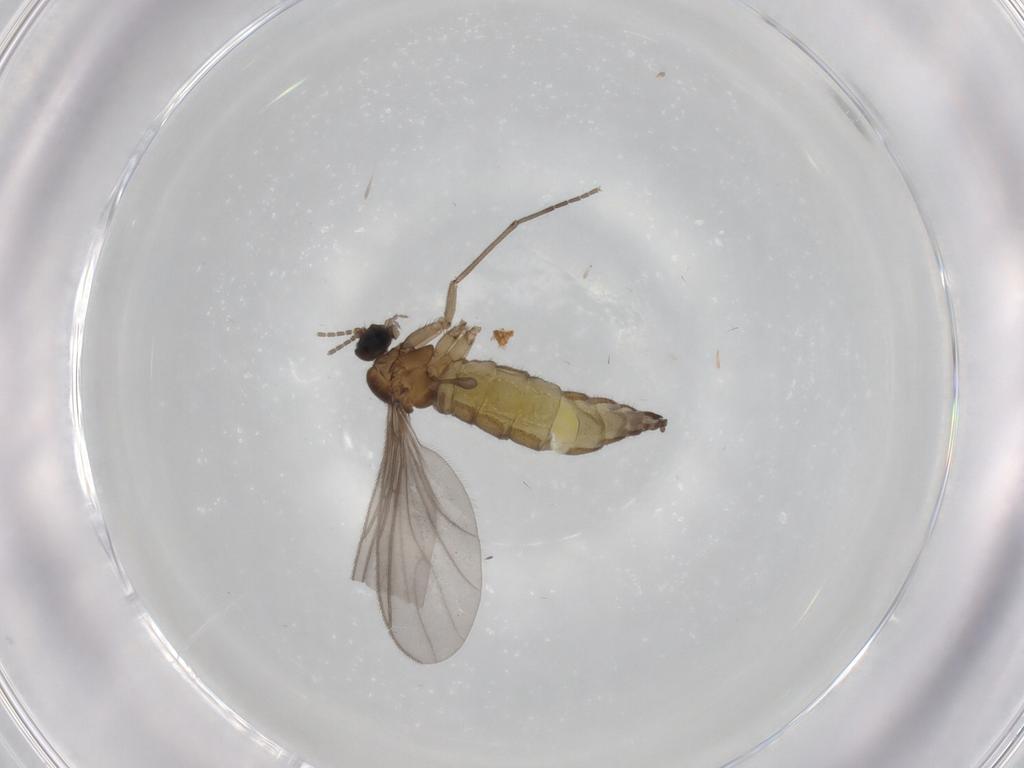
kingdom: Animalia
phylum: Arthropoda
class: Insecta
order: Diptera
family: Sciaridae
